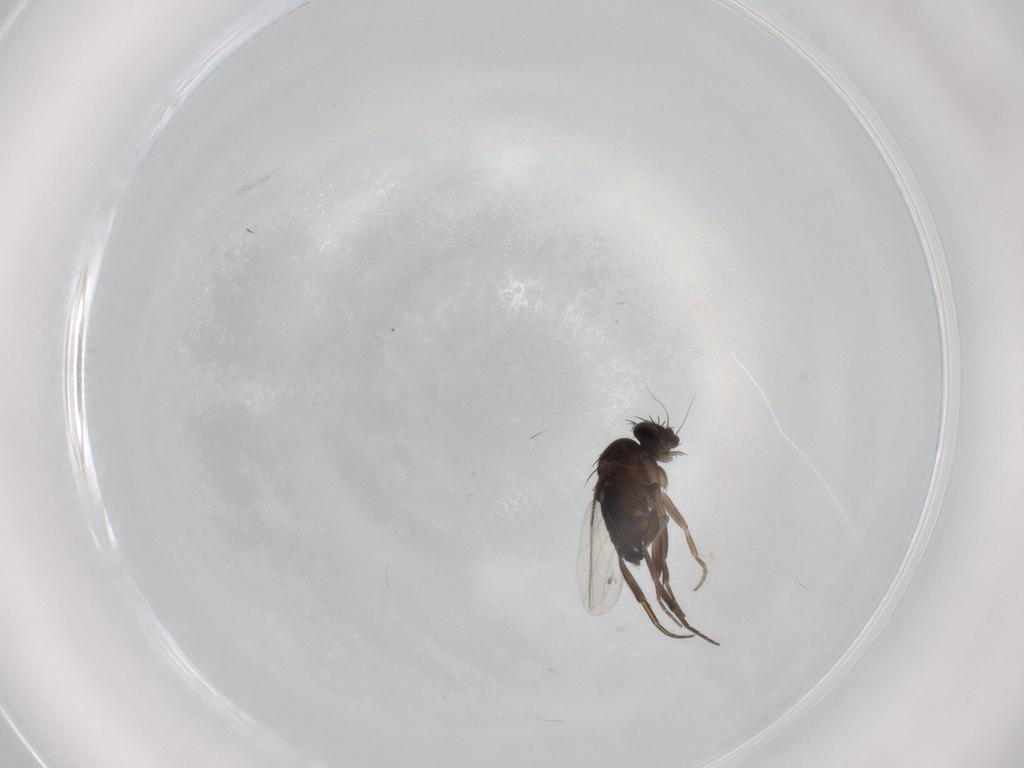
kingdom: Animalia
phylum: Arthropoda
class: Insecta
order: Diptera
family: Phoridae
